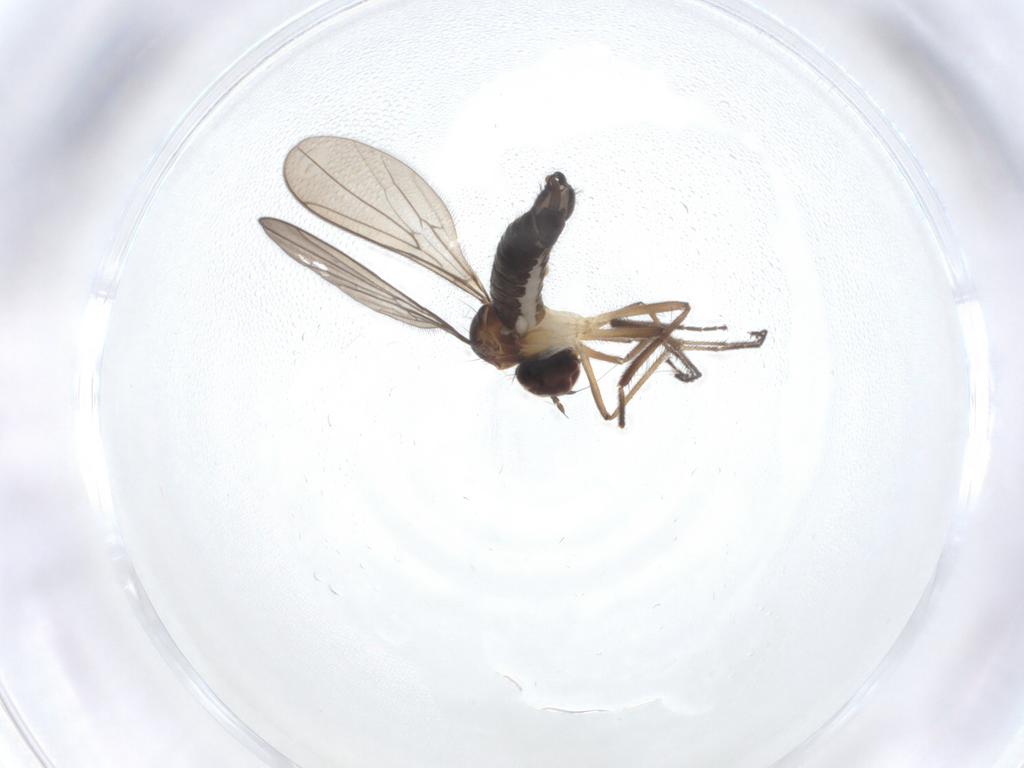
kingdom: Animalia
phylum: Arthropoda
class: Insecta
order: Diptera
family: Hybotidae
